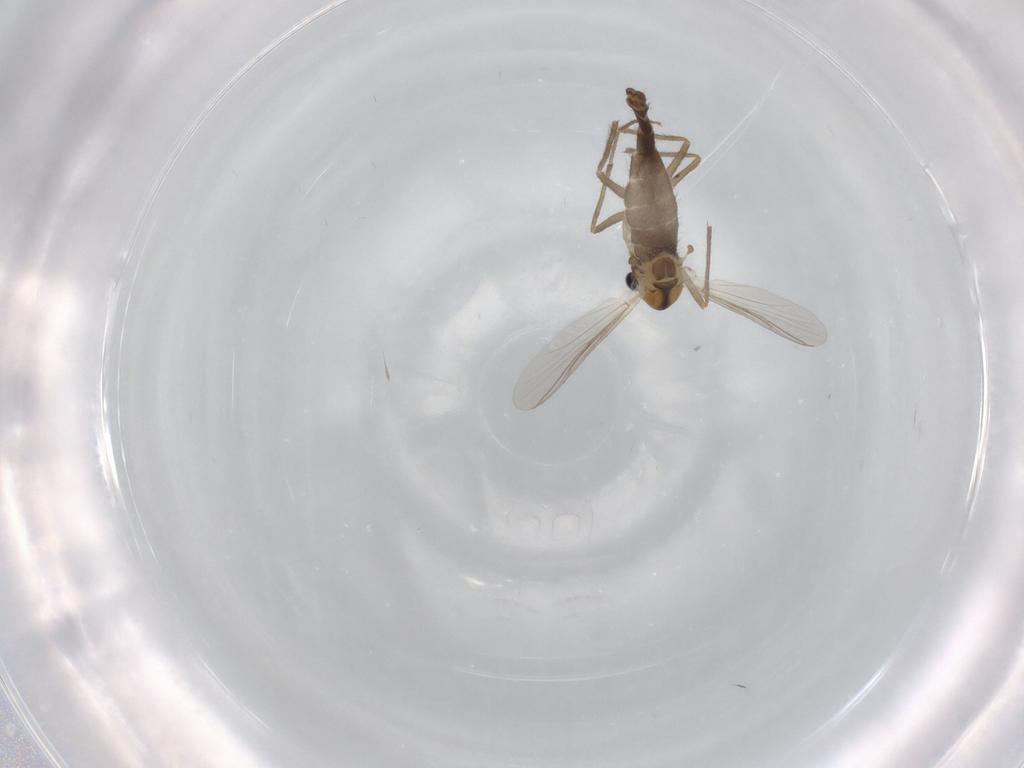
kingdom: Animalia
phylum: Arthropoda
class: Insecta
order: Diptera
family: Chironomidae
